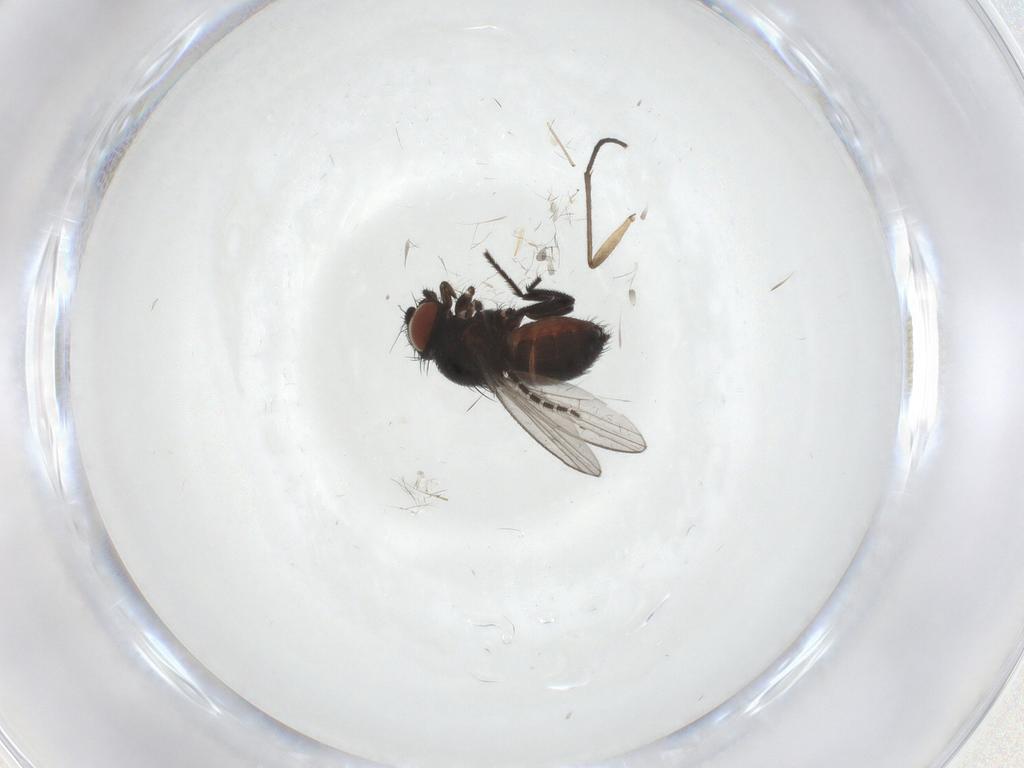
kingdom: Animalia
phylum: Arthropoda
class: Insecta
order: Diptera
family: Milichiidae
